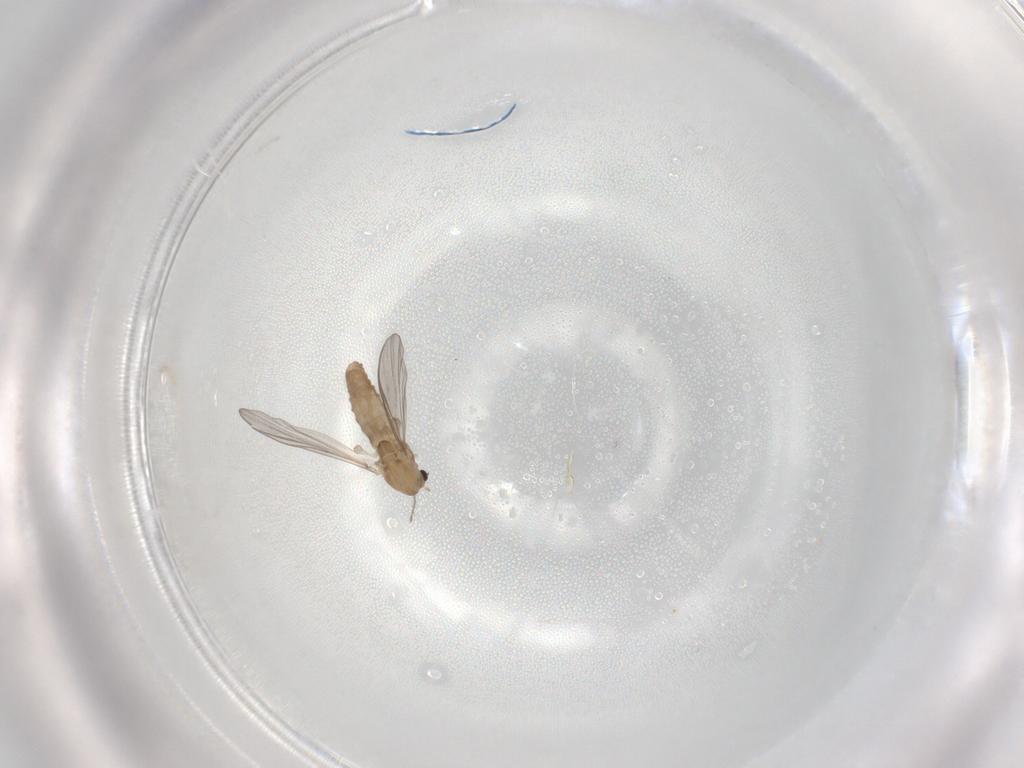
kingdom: Animalia
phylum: Arthropoda
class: Insecta
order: Diptera
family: Chironomidae
